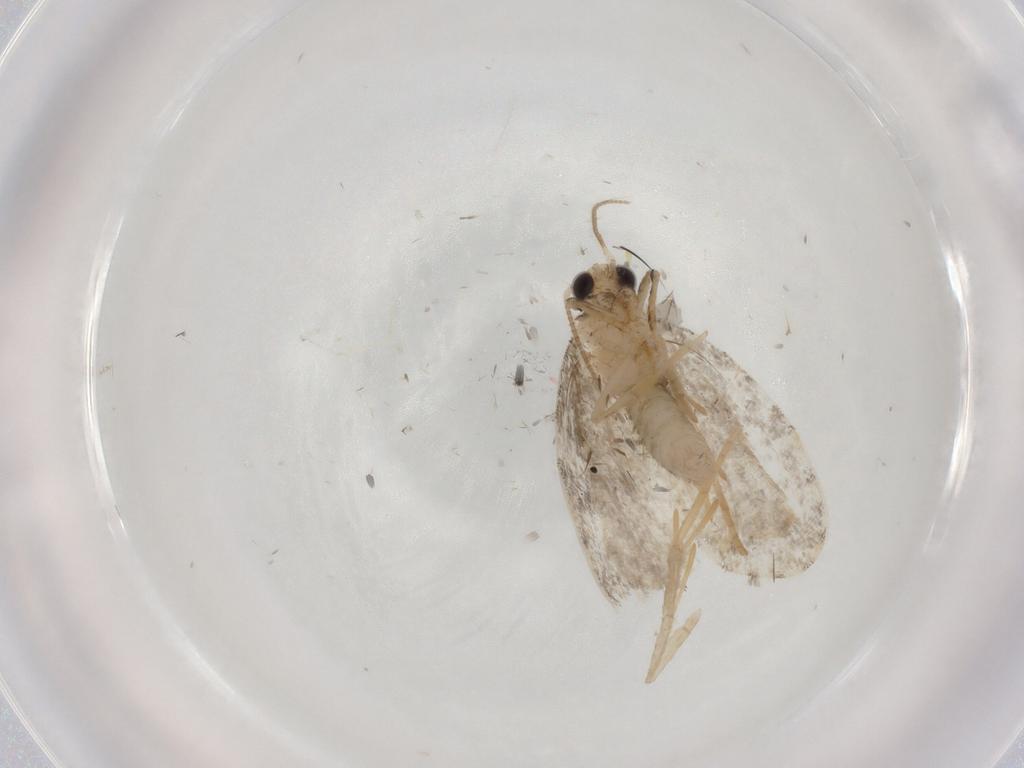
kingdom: Animalia
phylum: Arthropoda
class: Insecta
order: Lepidoptera
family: Psychidae
